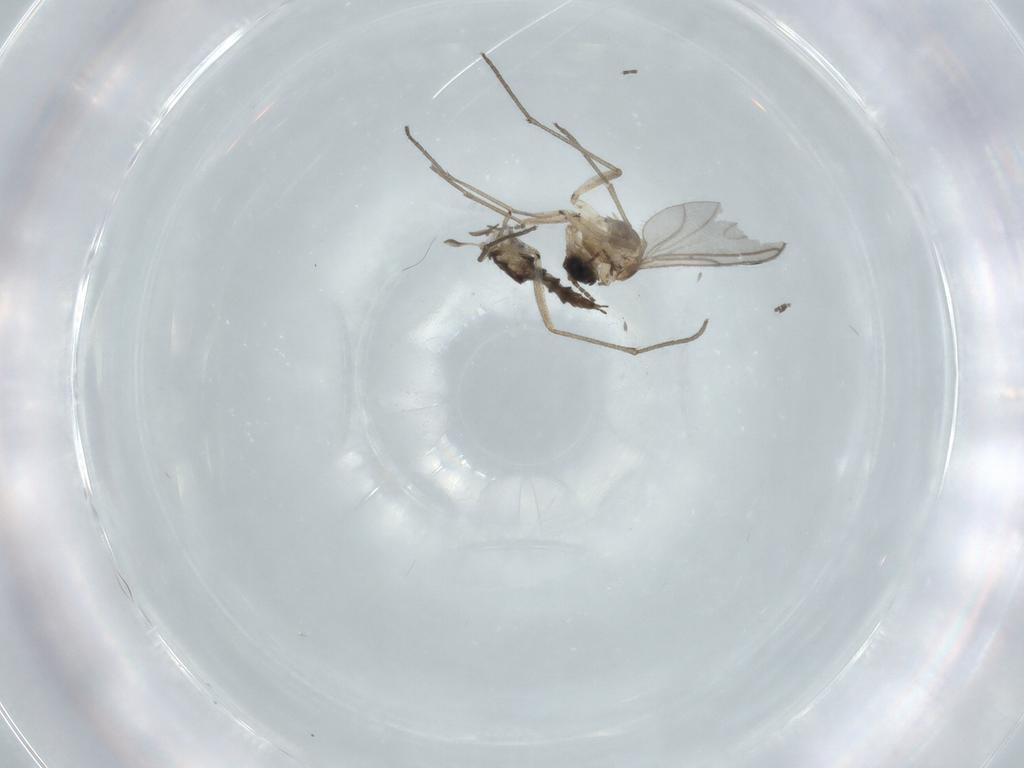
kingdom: Animalia
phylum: Arthropoda
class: Insecta
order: Diptera
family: Sciaridae
